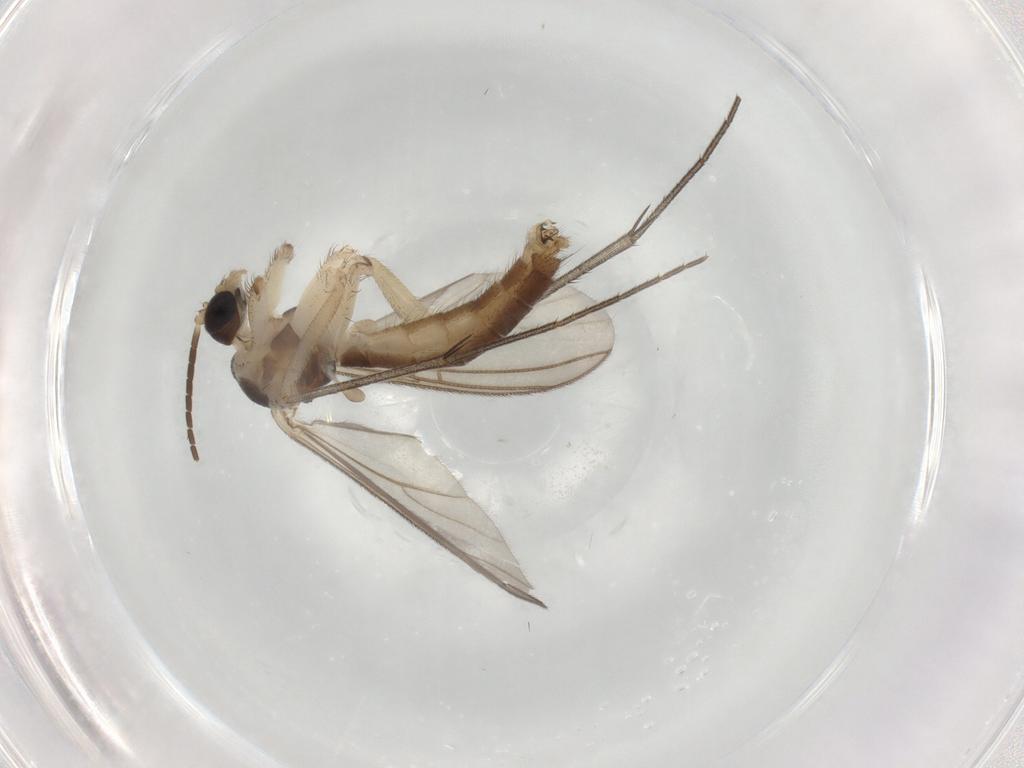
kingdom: Animalia
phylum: Arthropoda
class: Insecta
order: Diptera
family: Mycetophilidae
